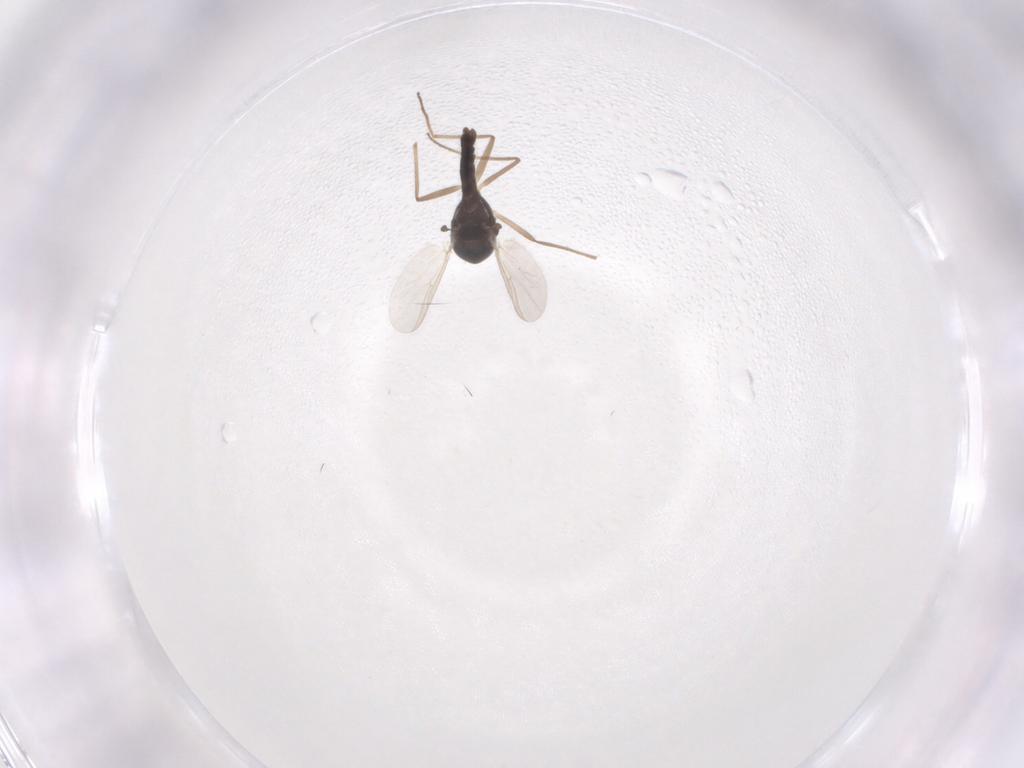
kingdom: Animalia
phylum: Arthropoda
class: Insecta
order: Diptera
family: Chironomidae
